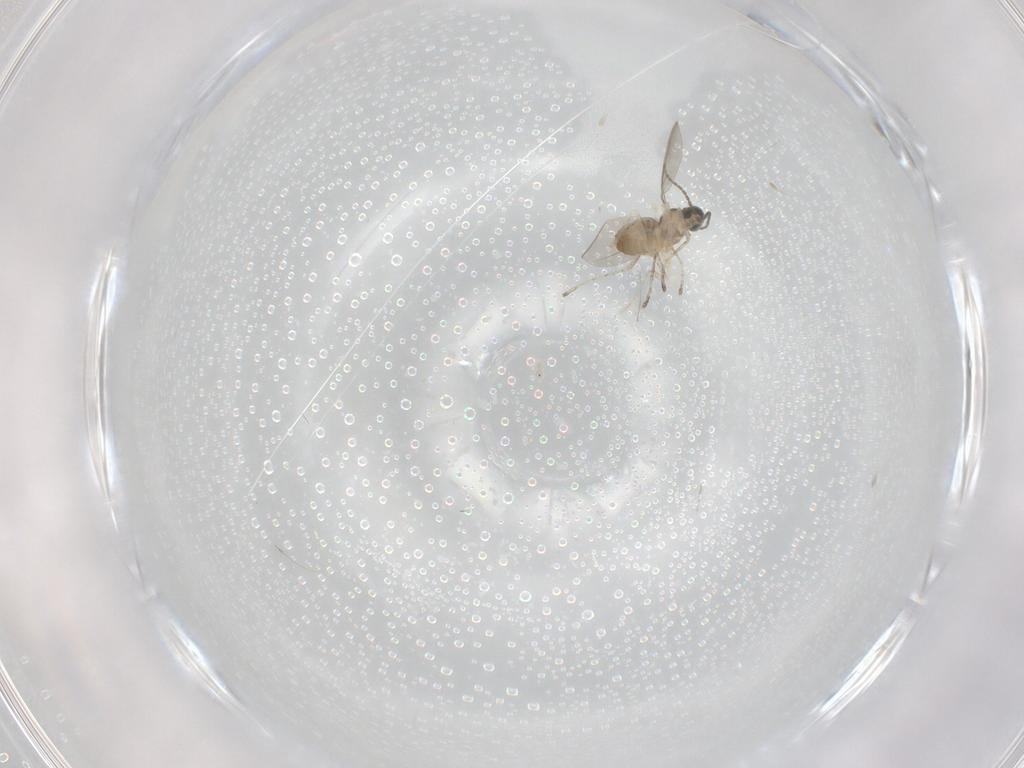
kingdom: Animalia
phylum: Arthropoda
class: Insecta
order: Diptera
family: Cecidomyiidae
